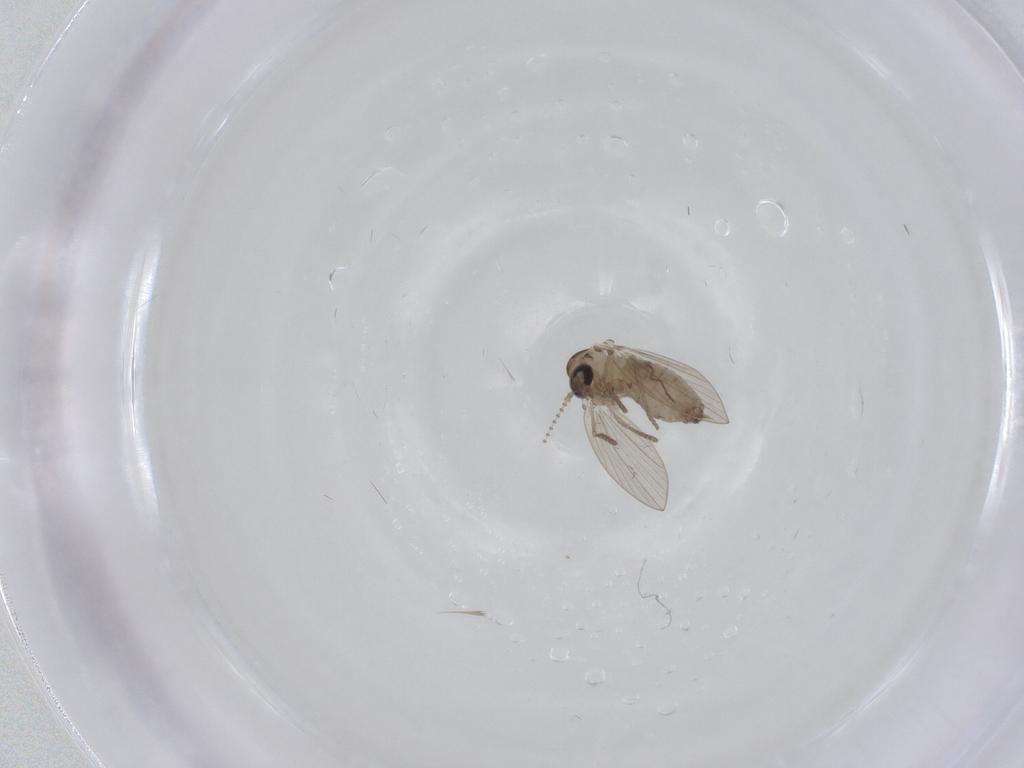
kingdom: Animalia
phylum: Arthropoda
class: Insecta
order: Diptera
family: Psychodidae
